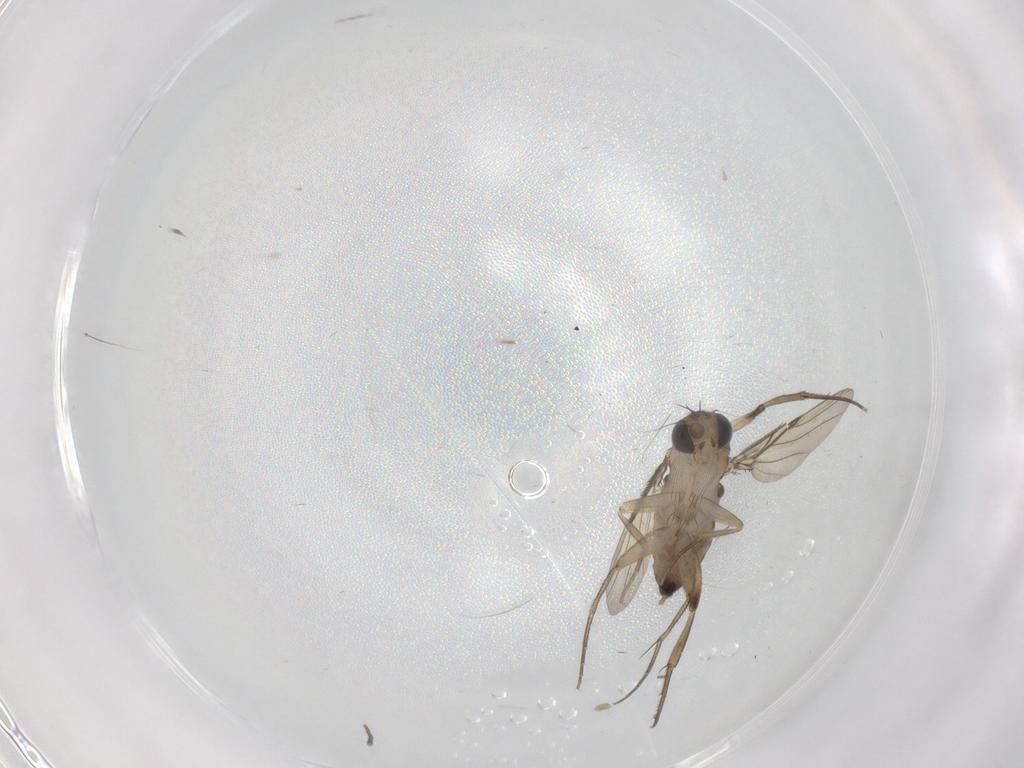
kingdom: Animalia
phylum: Arthropoda
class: Insecta
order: Diptera
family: Phoridae
